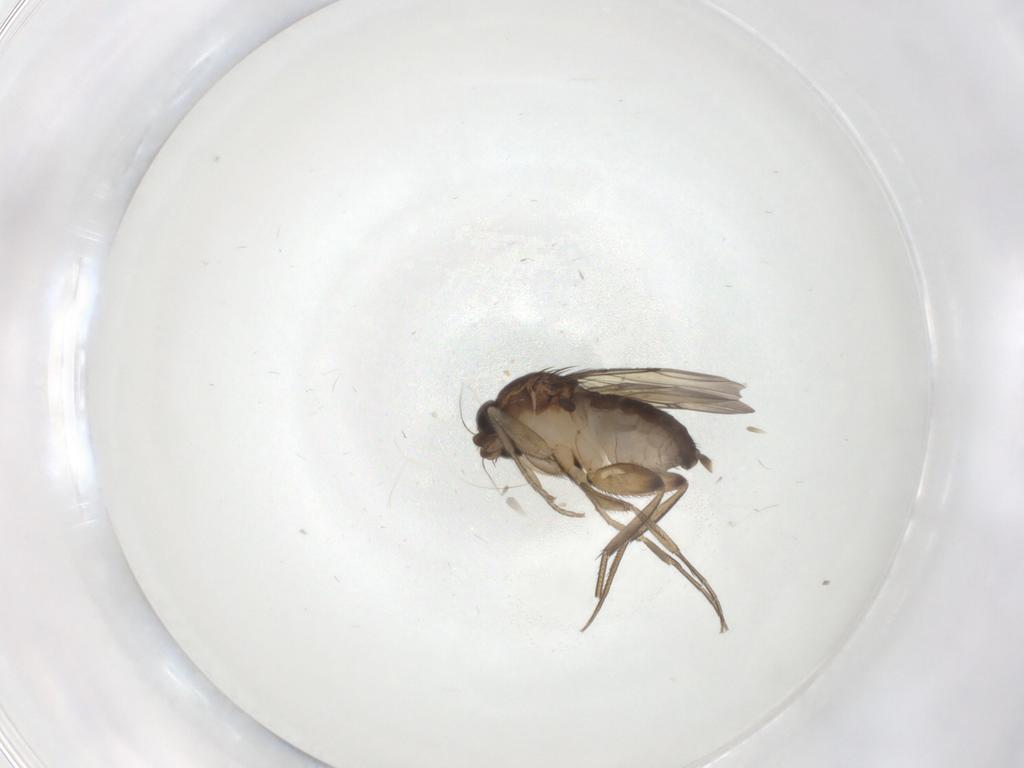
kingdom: Animalia
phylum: Arthropoda
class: Insecta
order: Diptera
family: Phoridae
